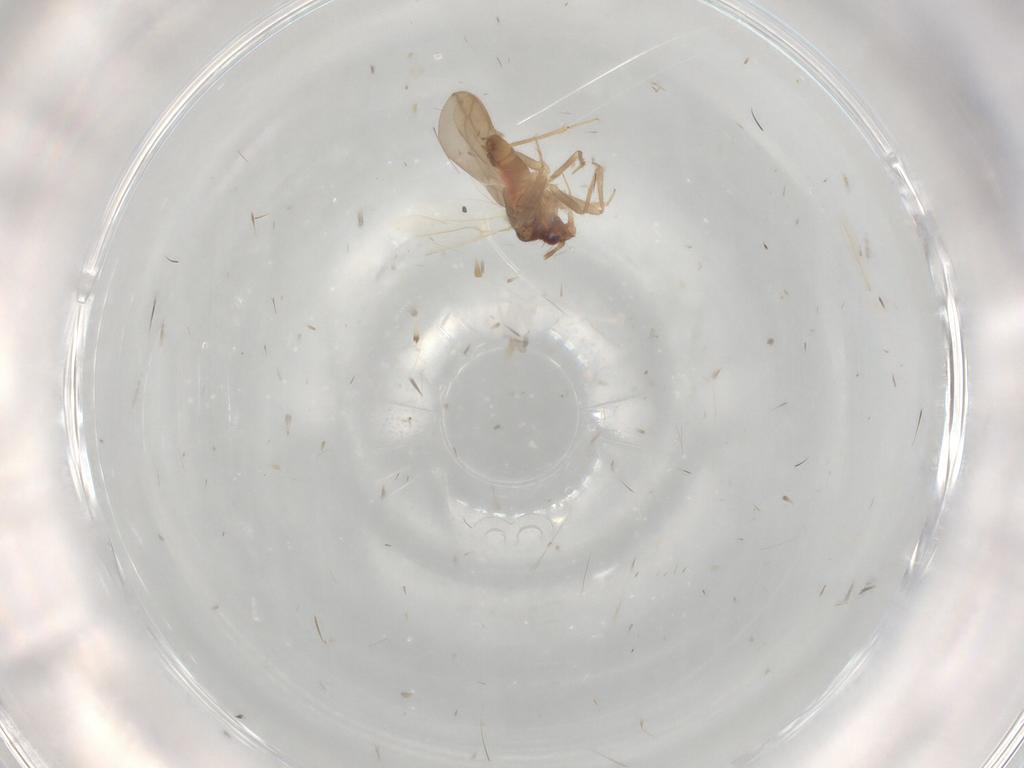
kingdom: Animalia
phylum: Arthropoda
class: Insecta
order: Hemiptera
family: Ceratocombidae
